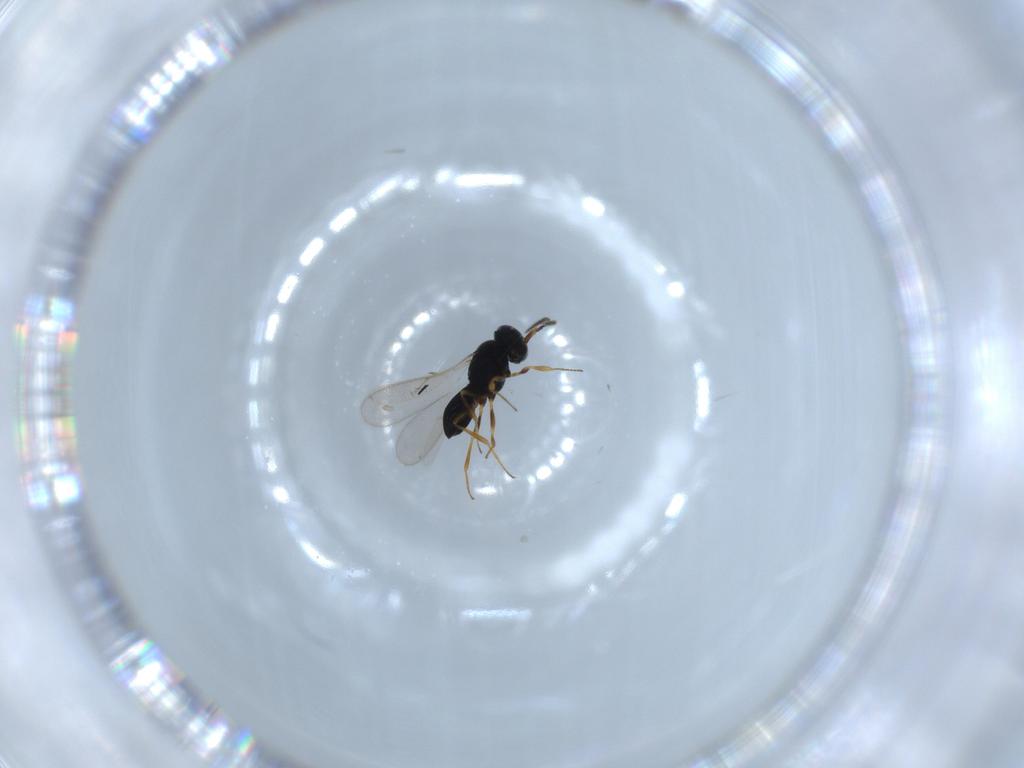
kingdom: Animalia
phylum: Arthropoda
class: Insecta
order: Hymenoptera
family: Scelionidae
